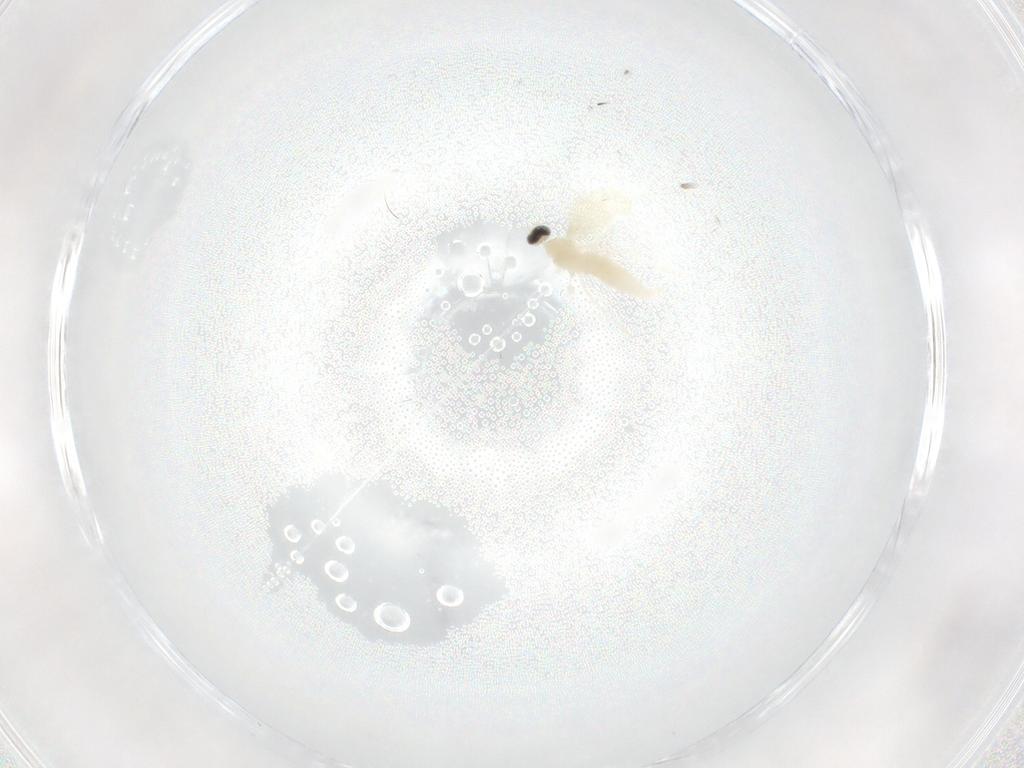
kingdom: Animalia
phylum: Arthropoda
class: Insecta
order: Diptera
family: Cecidomyiidae
